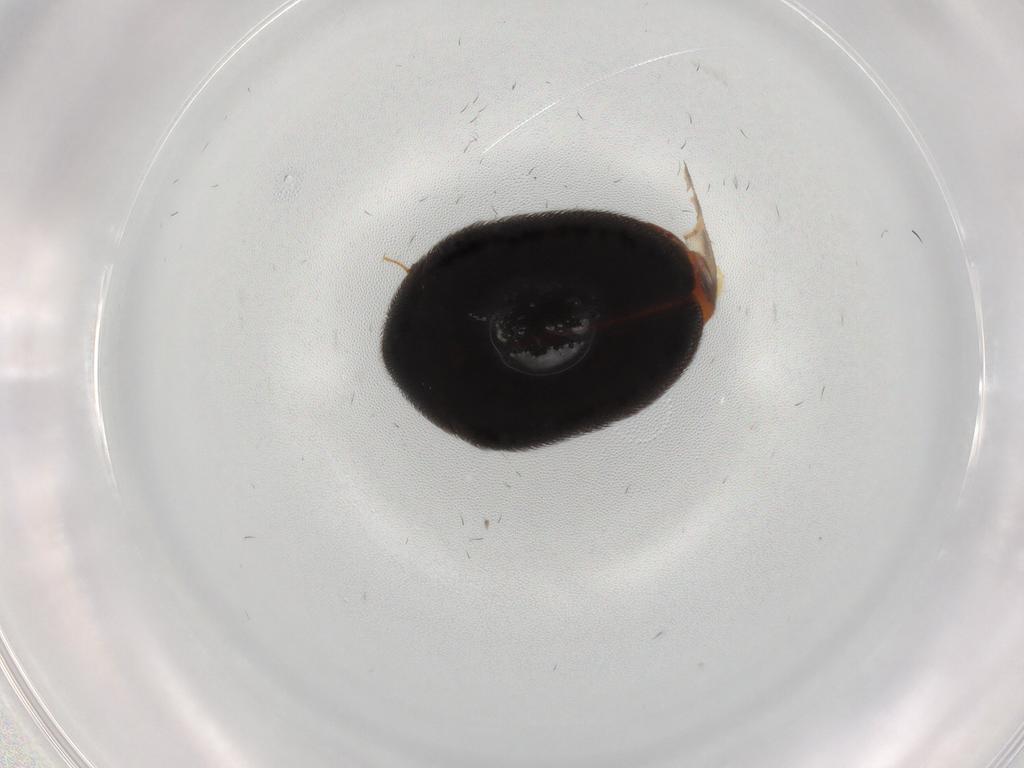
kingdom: Animalia
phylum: Arthropoda
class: Insecta
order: Coleoptera
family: Dermestidae
